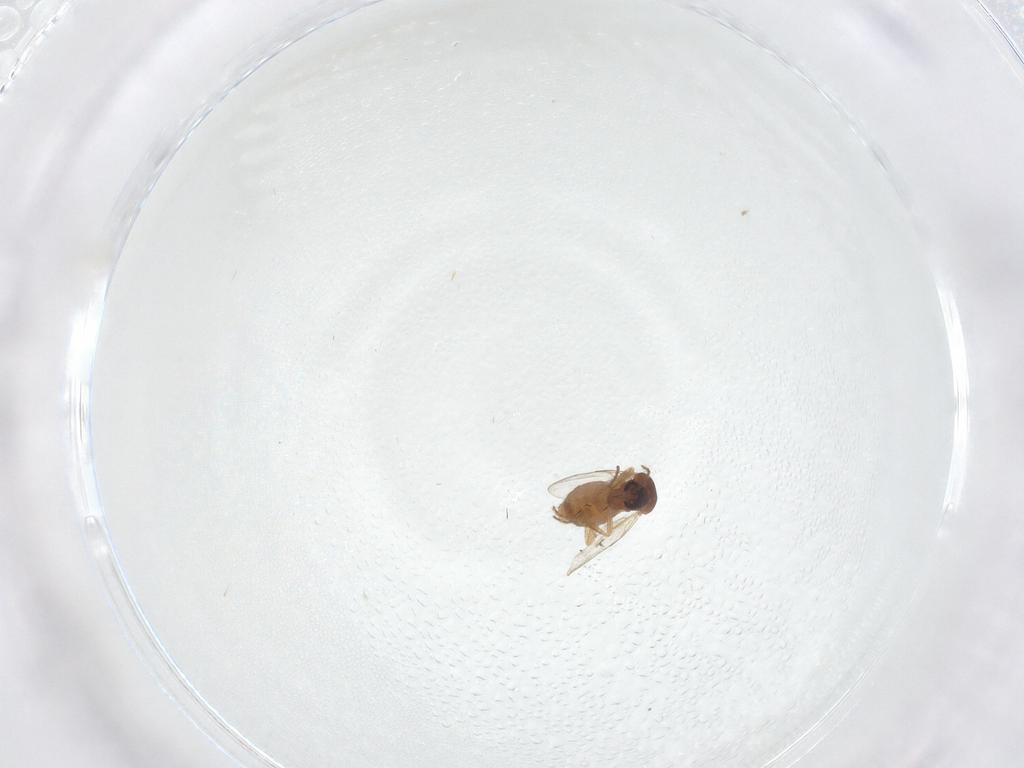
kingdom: Animalia
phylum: Arthropoda
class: Insecta
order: Diptera
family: Ceratopogonidae
